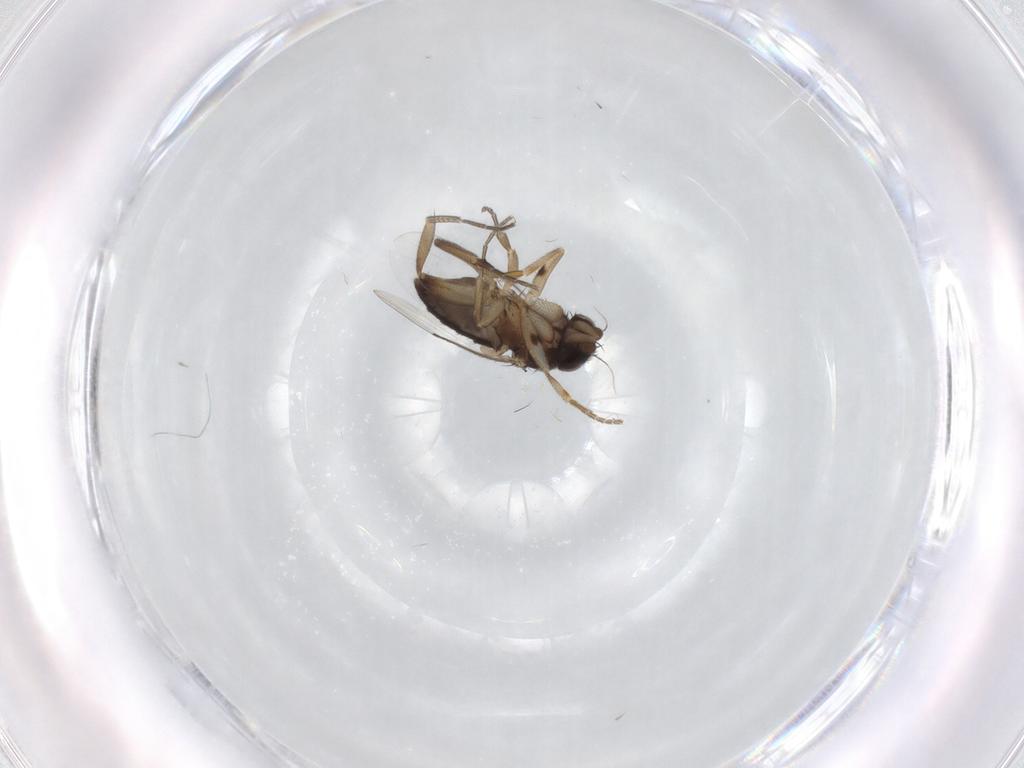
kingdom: Animalia
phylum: Arthropoda
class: Insecta
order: Diptera
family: Phoridae
